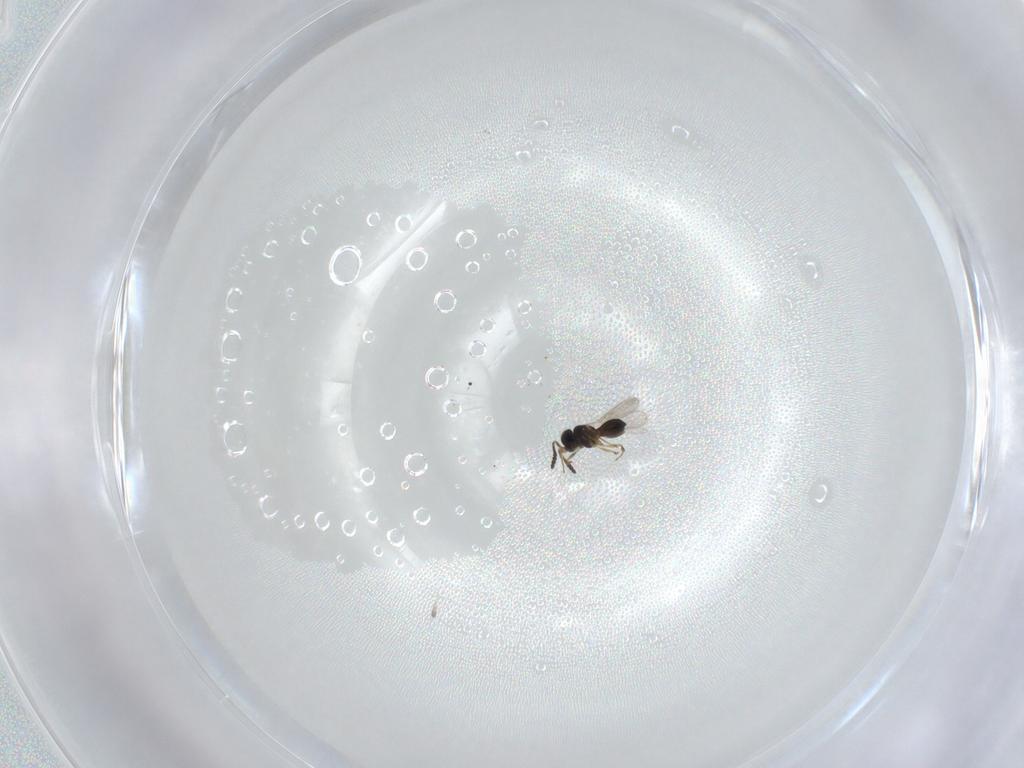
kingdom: Animalia
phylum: Arthropoda
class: Insecta
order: Hymenoptera
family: Scelionidae
